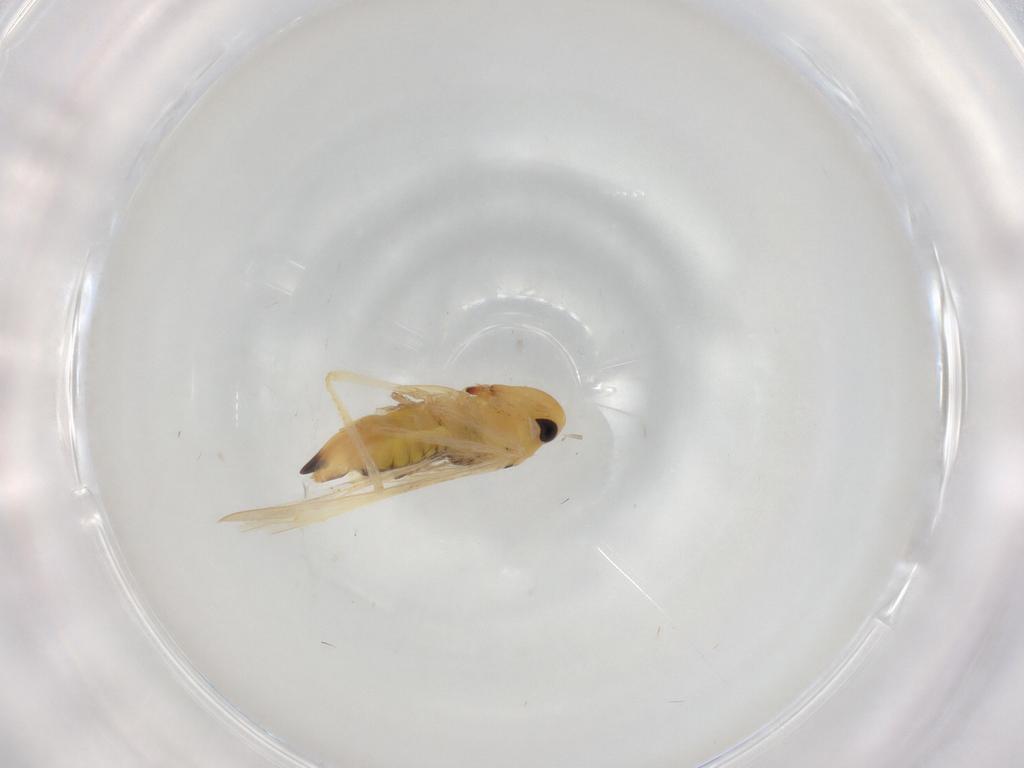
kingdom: Animalia
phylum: Arthropoda
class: Insecta
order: Hemiptera
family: Cicadellidae
